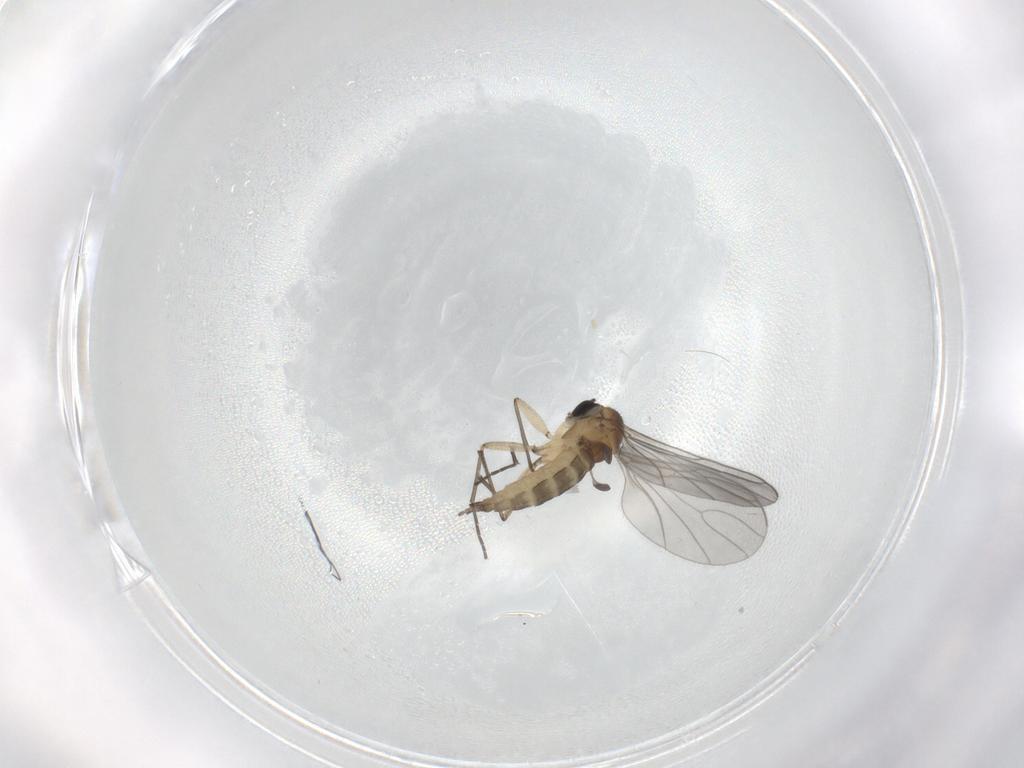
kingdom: Animalia
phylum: Arthropoda
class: Insecta
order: Diptera
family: Sciaridae
